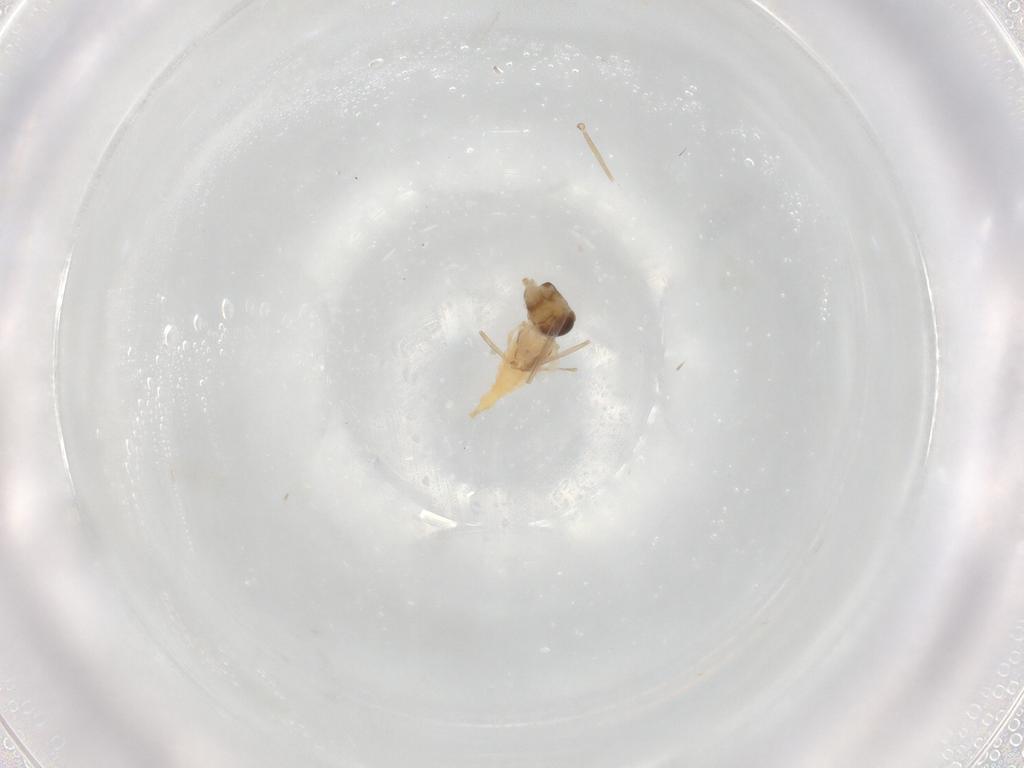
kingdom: Animalia
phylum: Arthropoda
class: Insecta
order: Diptera
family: Cecidomyiidae
